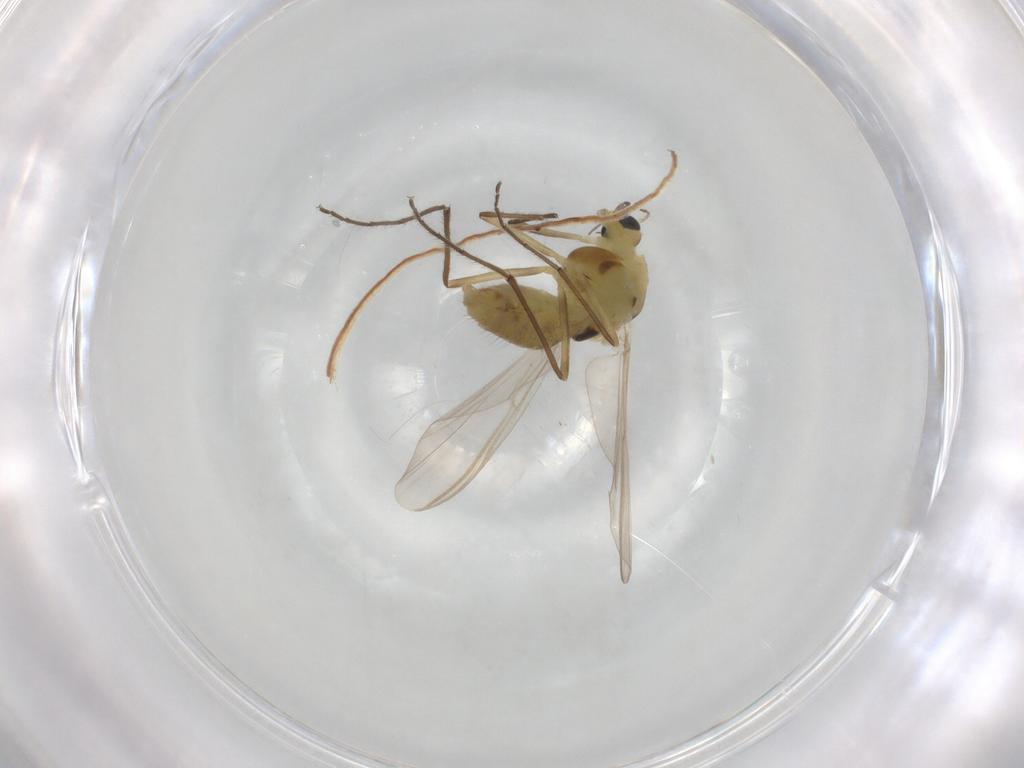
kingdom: Animalia
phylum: Arthropoda
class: Insecta
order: Diptera
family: Chironomidae
